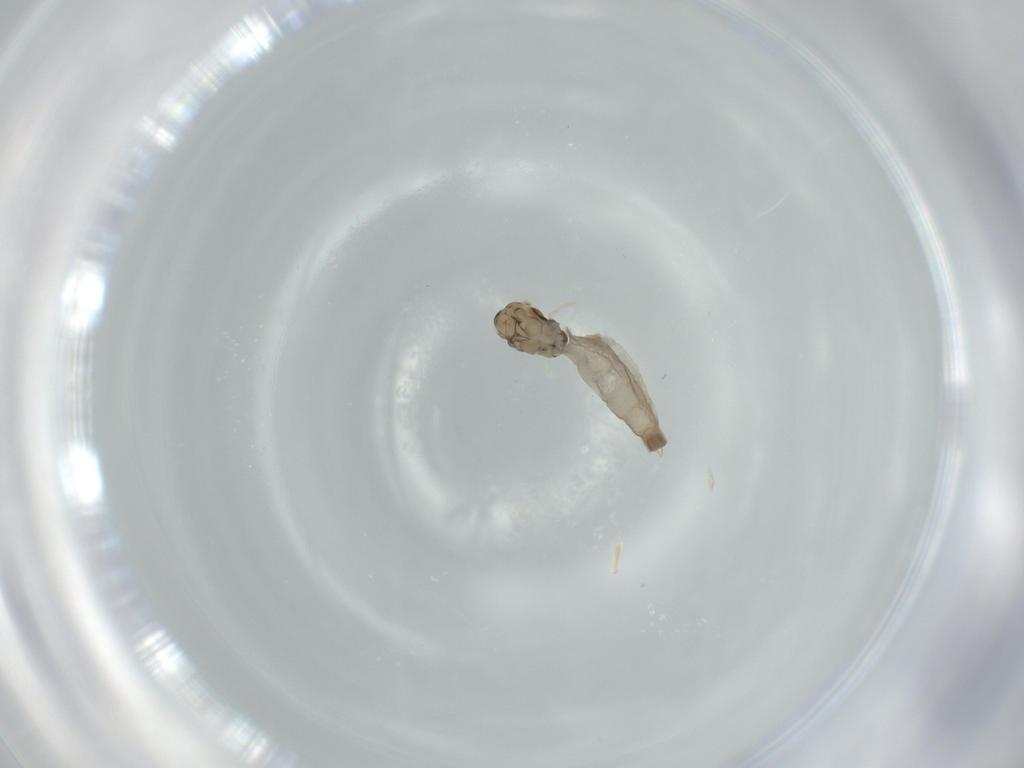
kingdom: Animalia
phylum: Arthropoda
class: Insecta
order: Diptera
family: Cecidomyiidae
